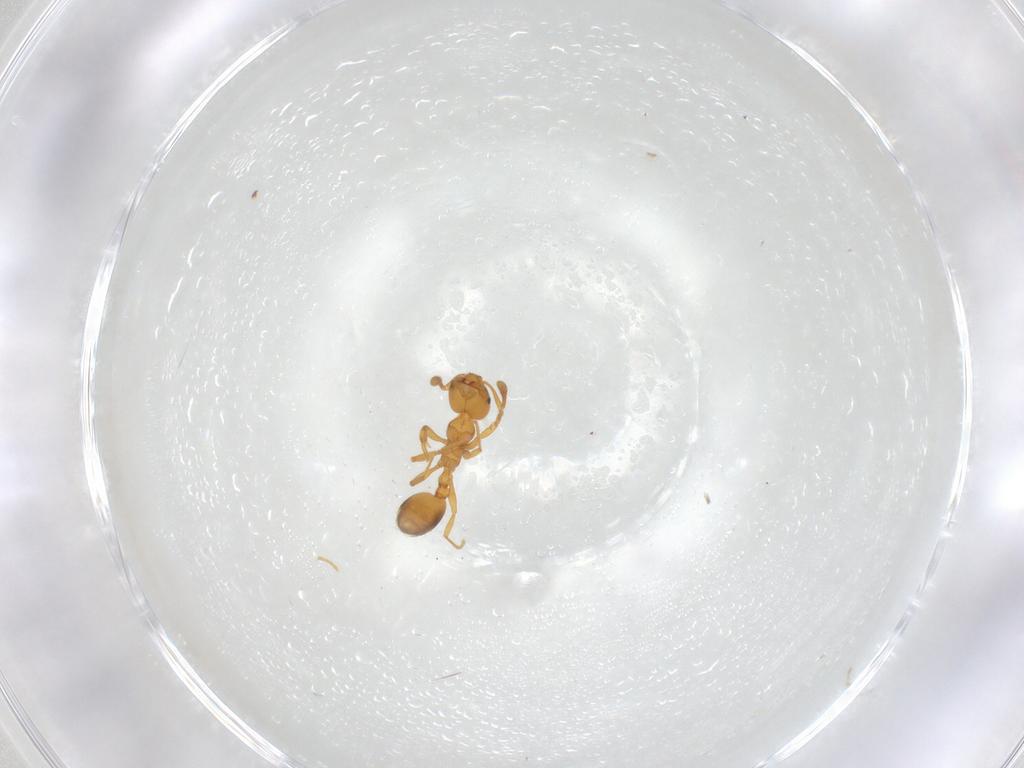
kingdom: Animalia
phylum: Arthropoda
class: Insecta
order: Hymenoptera
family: Formicidae
